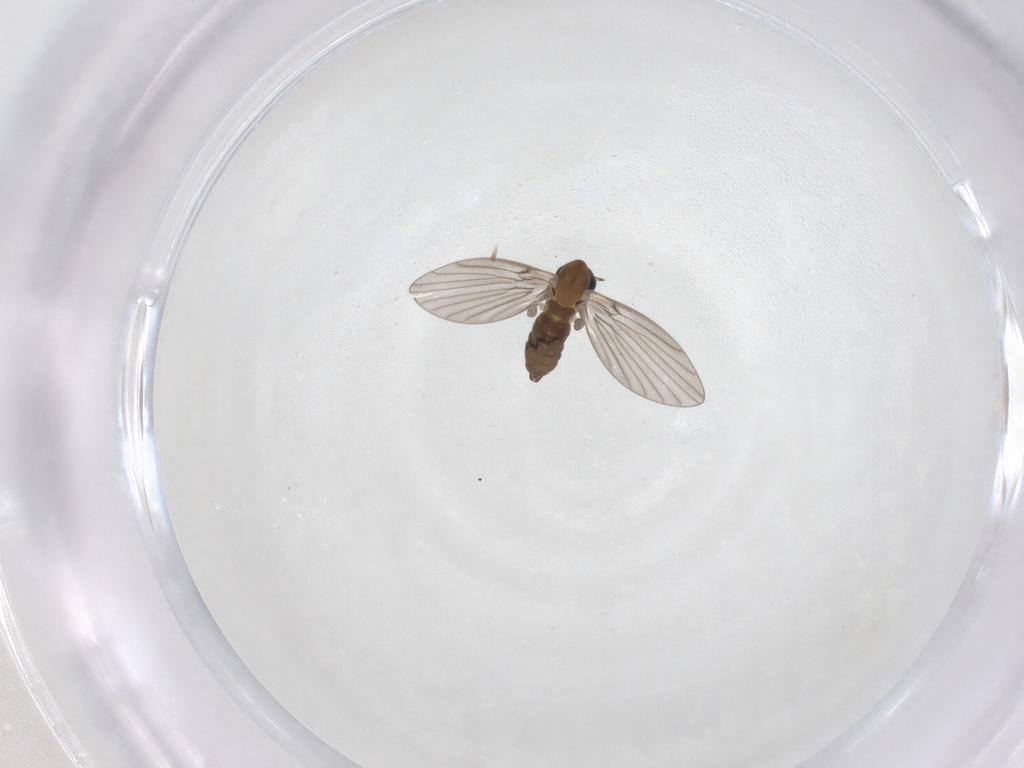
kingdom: Animalia
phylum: Arthropoda
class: Insecta
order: Diptera
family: Psychodidae
